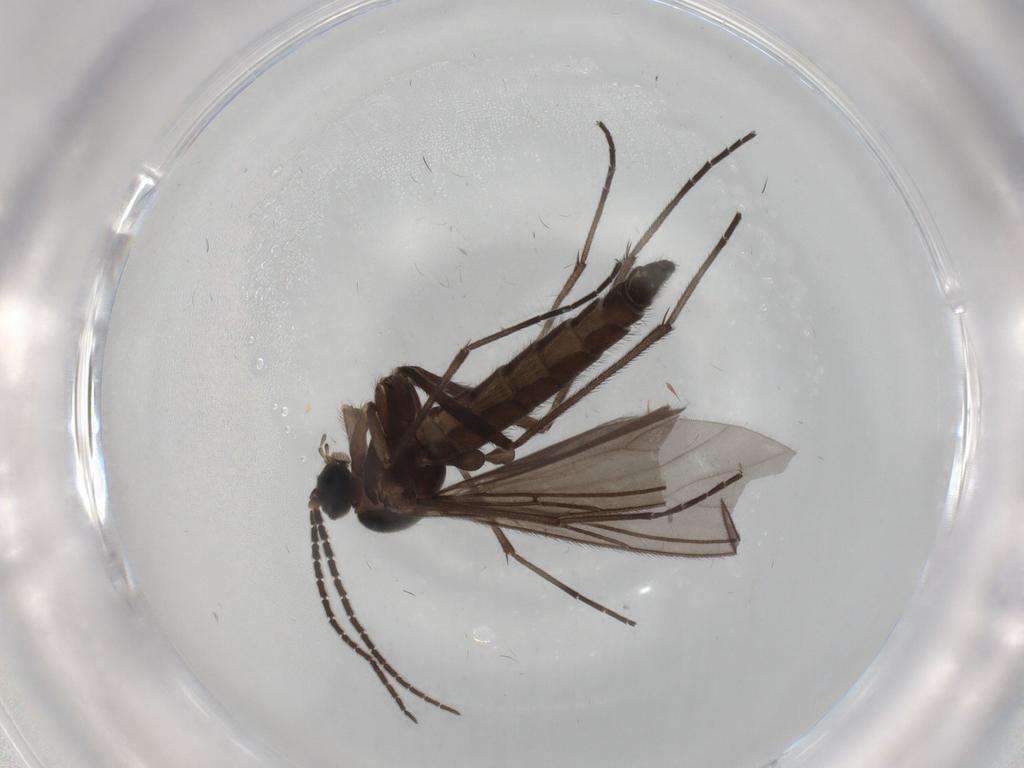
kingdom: Animalia
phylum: Arthropoda
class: Insecta
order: Diptera
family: Sciaridae
